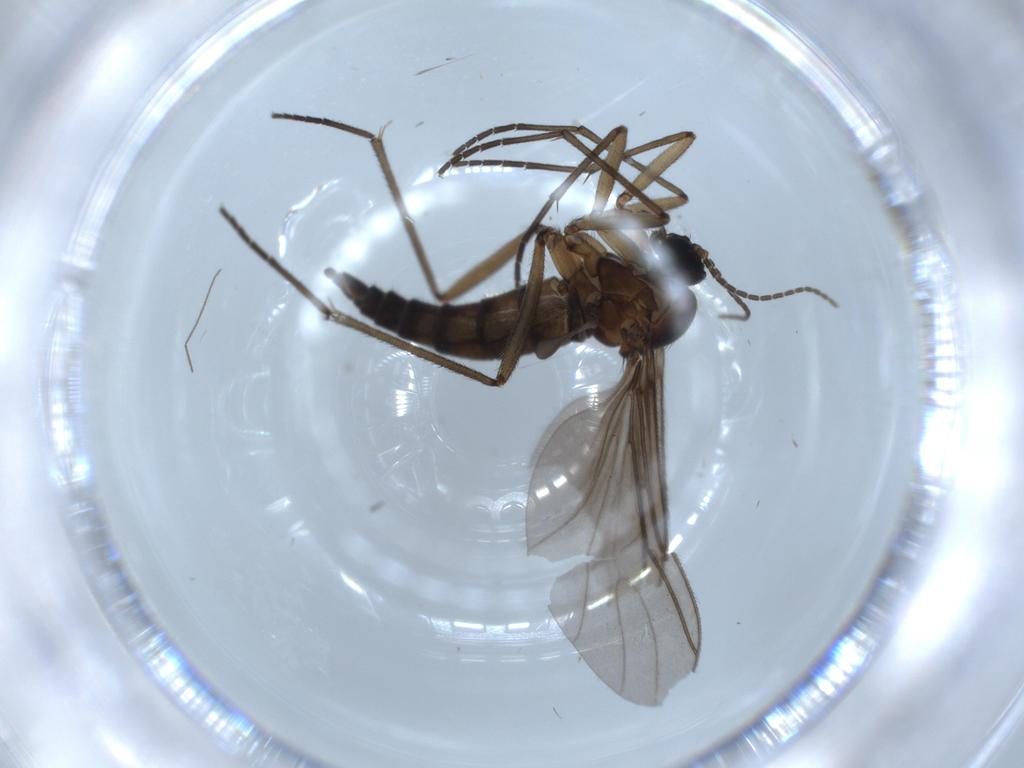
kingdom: Animalia
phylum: Arthropoda
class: Insecta
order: Diptera
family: Sciaridae
